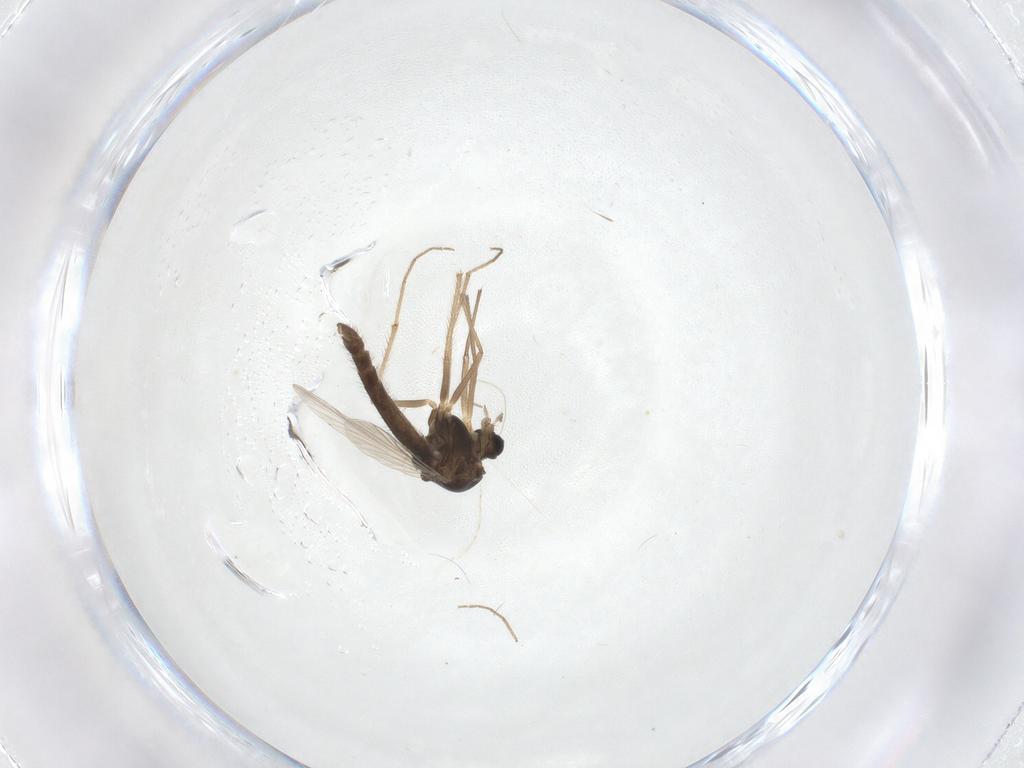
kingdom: Animalia
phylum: Arthropoda
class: Insecta
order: Diptera
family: Chironomidae
